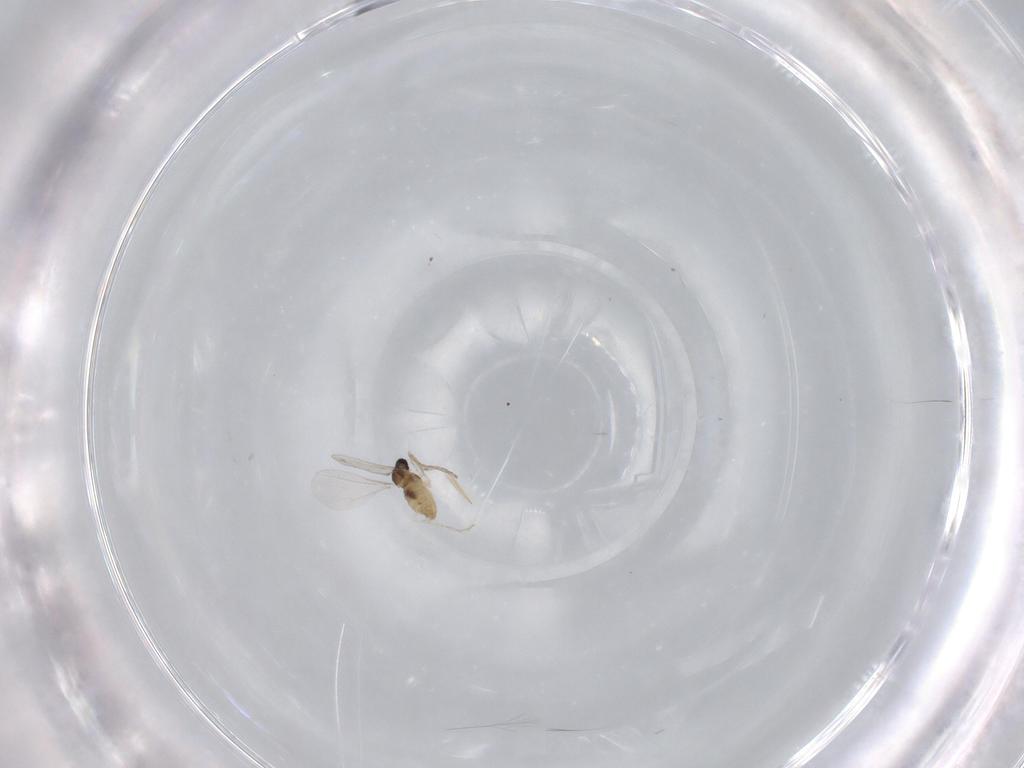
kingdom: Animalia
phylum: Arthropoda
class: Insecta
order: Diptera
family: Cecidomyiidae
